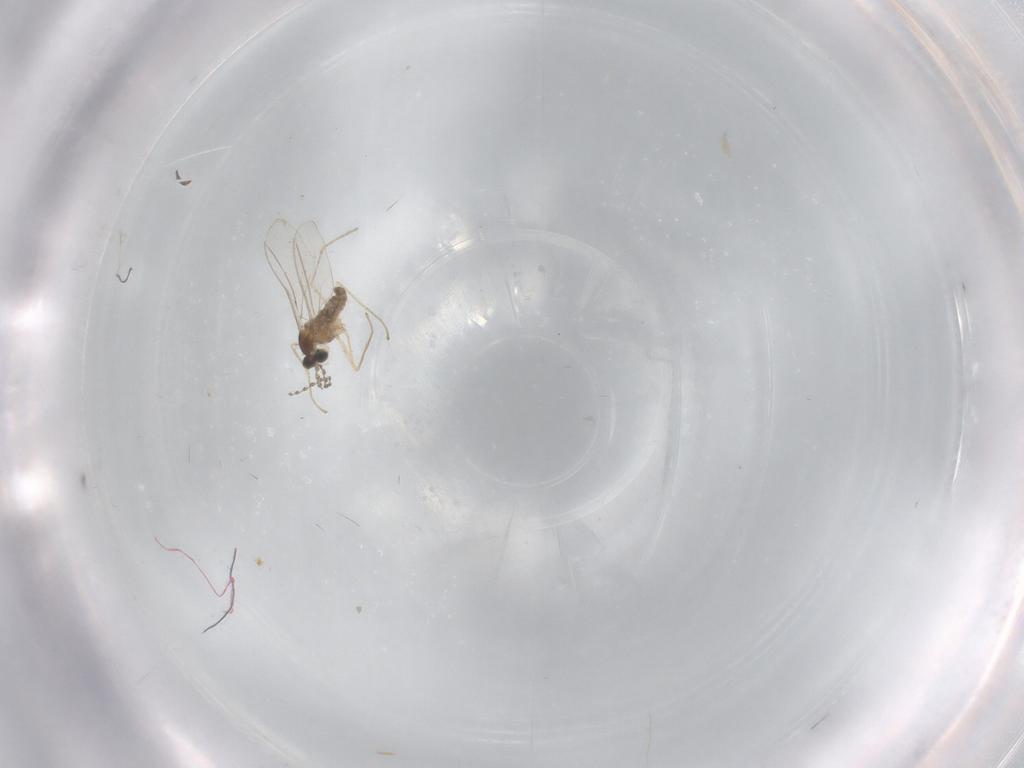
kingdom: Animalia
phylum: Arthropoda
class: Insecta
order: Diptera
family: Cecidomyiidae
